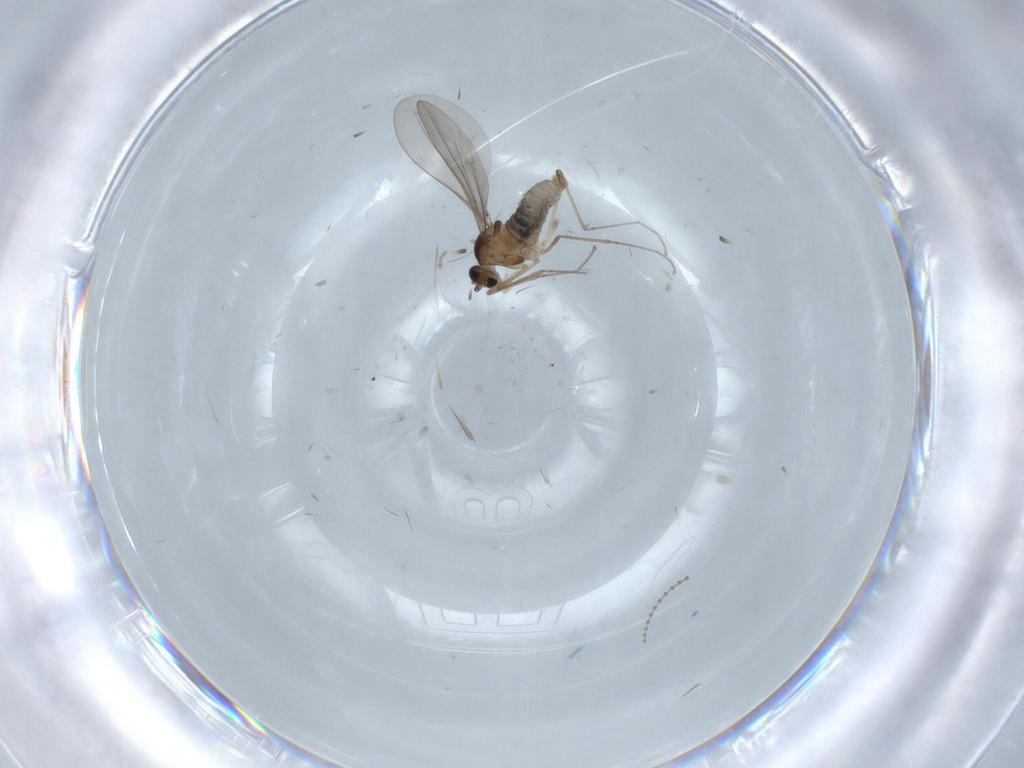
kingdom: Animalia
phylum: Arthropoda
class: Insecta
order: Diptera
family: Cecidomyiidae
